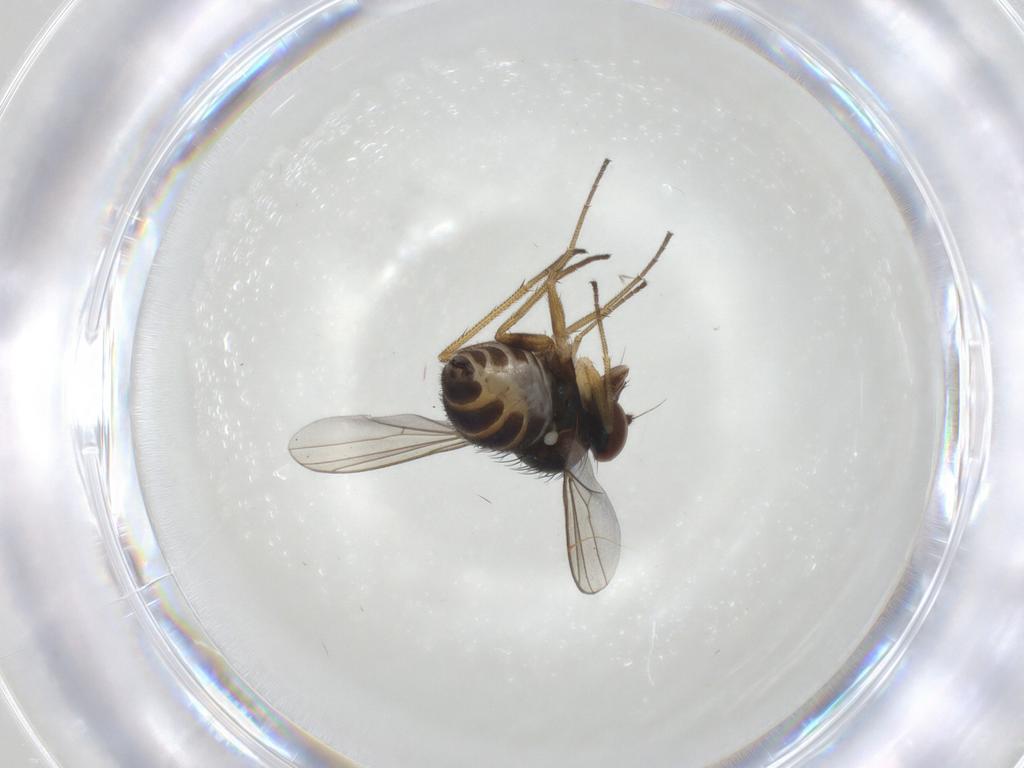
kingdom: Animalia
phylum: Arthropoda
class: Insecta
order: Diptera
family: Dolichopodidae
